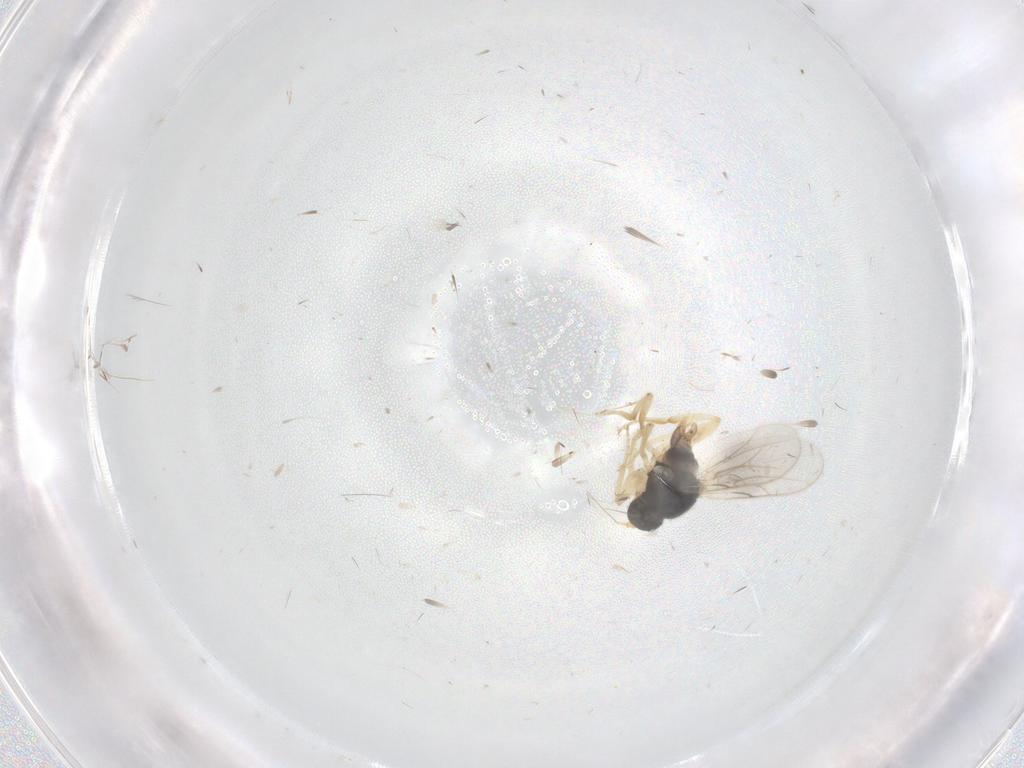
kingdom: Animalia
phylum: Arthropoda
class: Insecta
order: Diptera
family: Hybotidae
